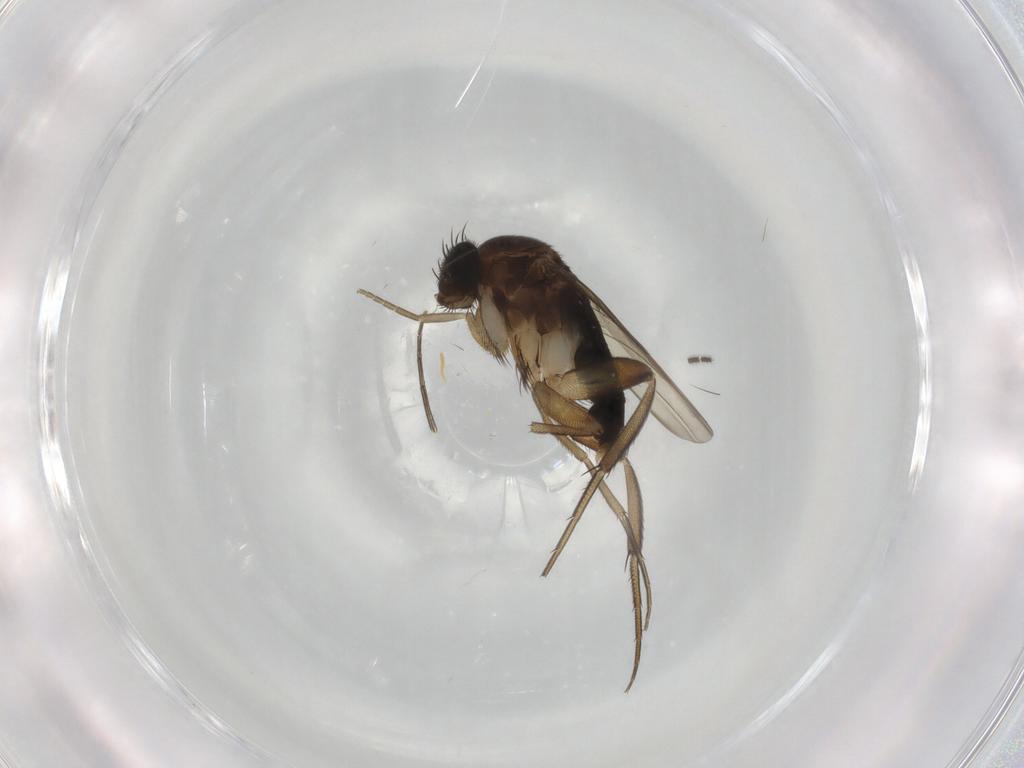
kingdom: Animalia
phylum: Arthropoda
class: Insecta
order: Diptera
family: Phoridae
